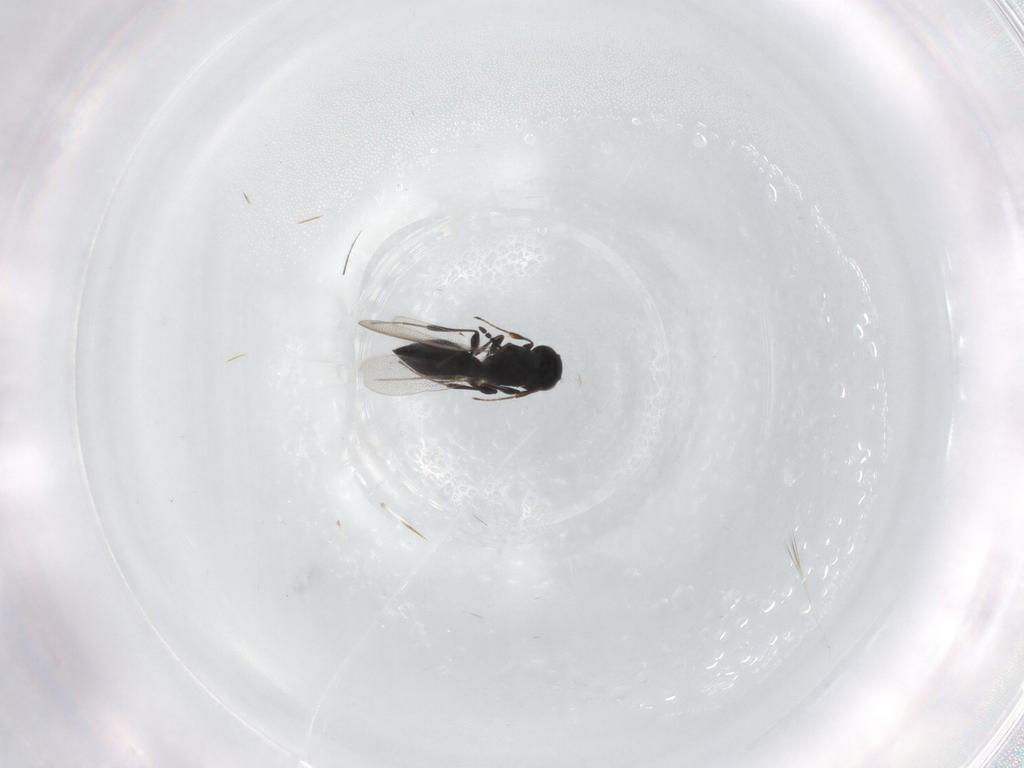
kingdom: Animalia
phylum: Arthropoda
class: Insecta
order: Hymenoptera
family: Platygastridae
